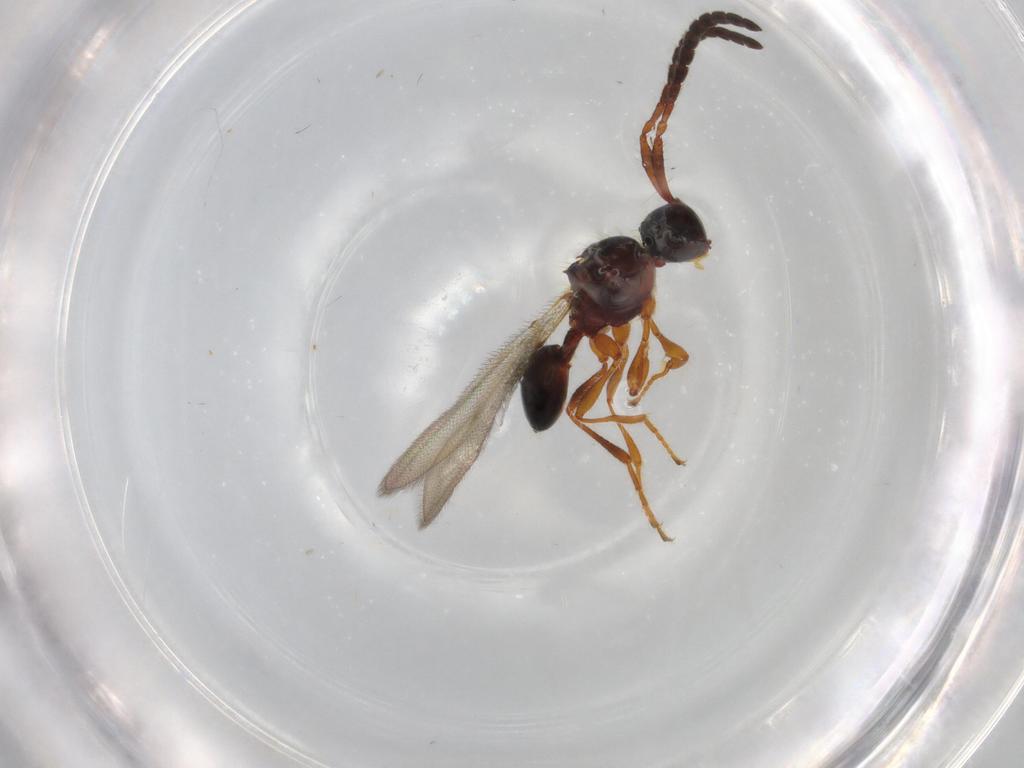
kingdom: Animalia
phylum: Arthropoda
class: Insecta
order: Hymenoptera
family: Diapriidae
